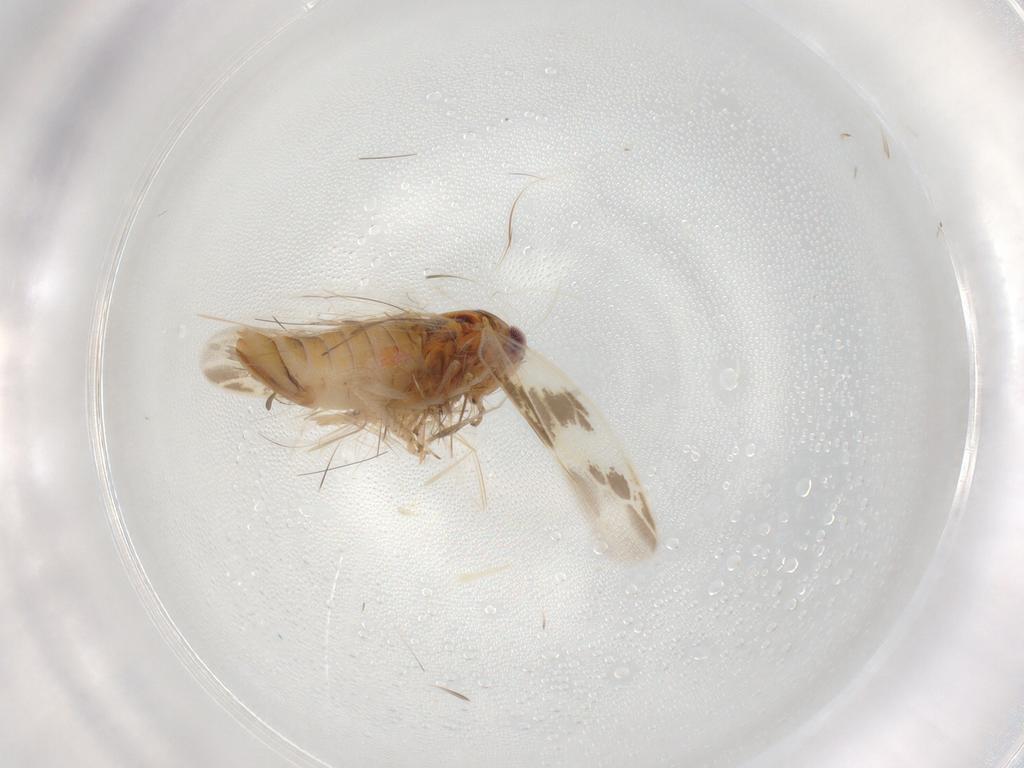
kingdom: Animalia
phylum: Arthropoda
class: Insecta
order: Hemiptera
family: Cicadellidae
